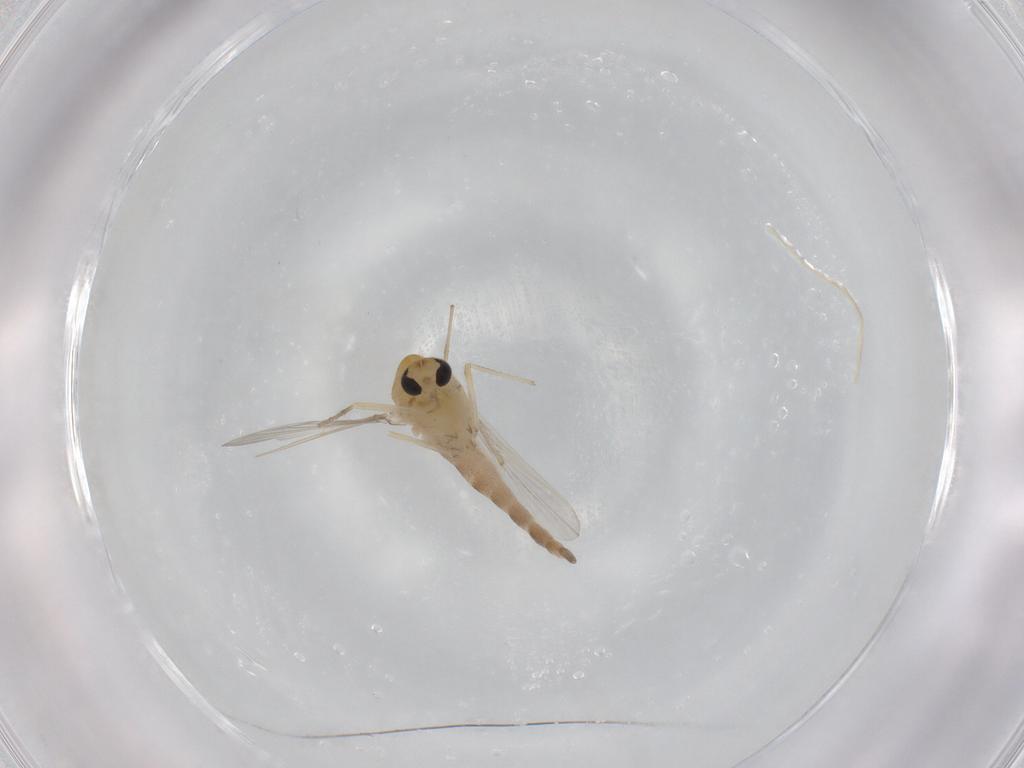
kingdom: Animalia
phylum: Arthropoda
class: Insecta
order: Diptera
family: Chironomidae
